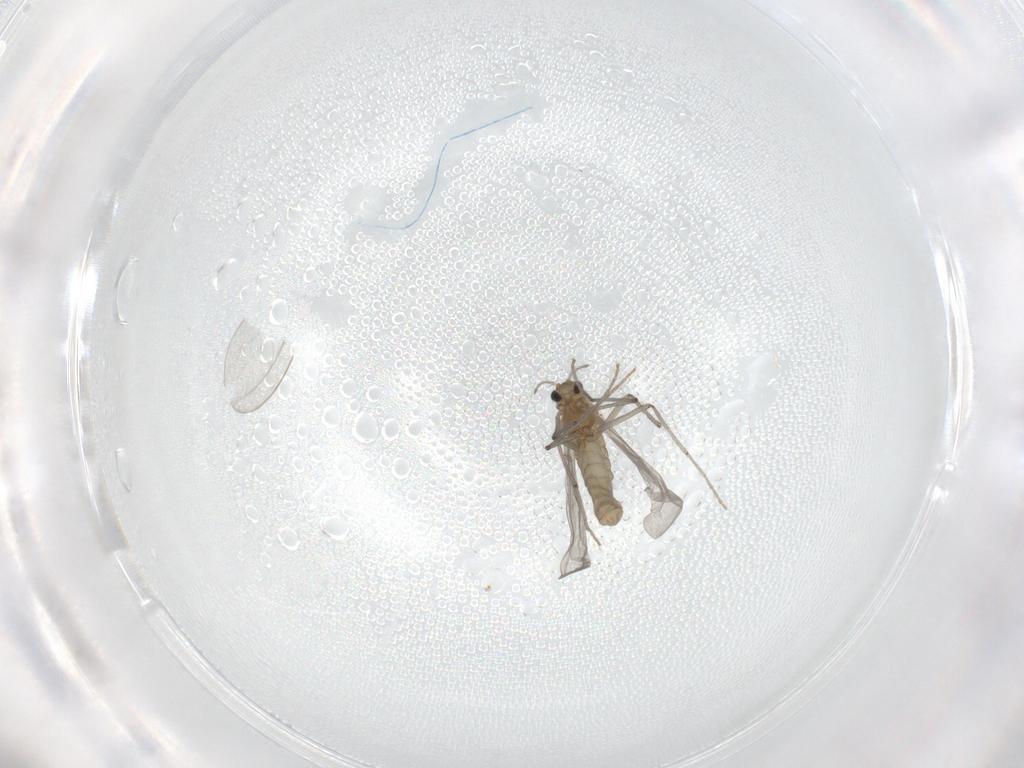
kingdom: Animalia
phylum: Arthropoda
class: Insecta
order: Diptera
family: Chironomidae
